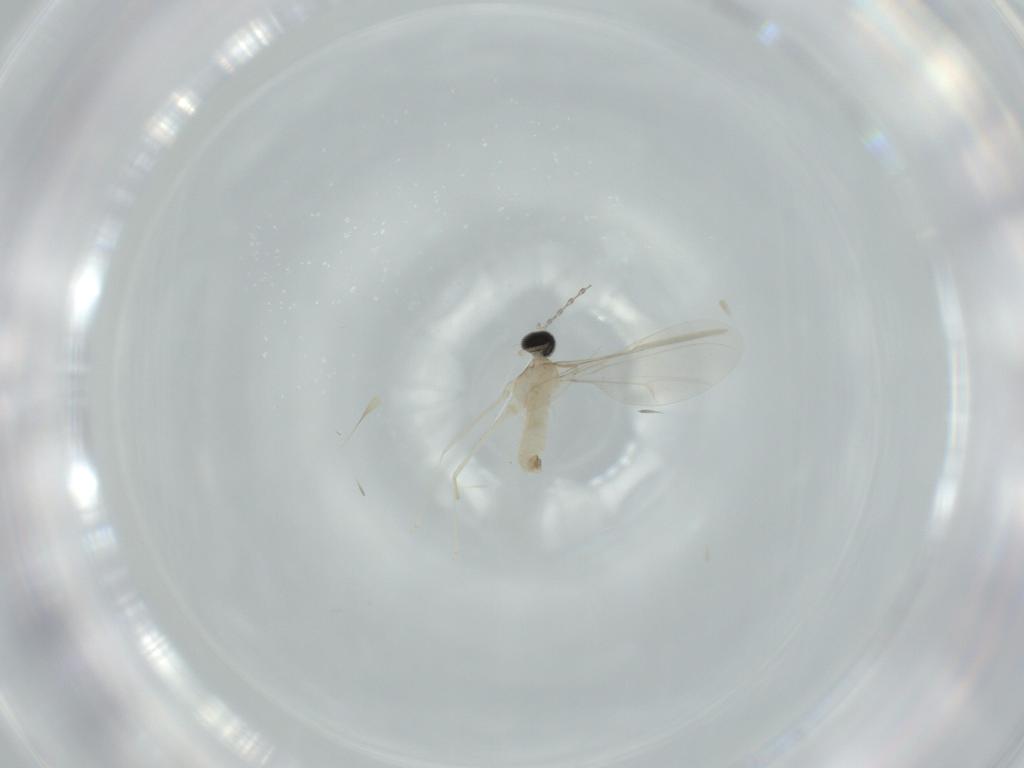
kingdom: Animalia
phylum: Arthropoda
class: Insecta
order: Diptera
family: Cecidomyiidae
